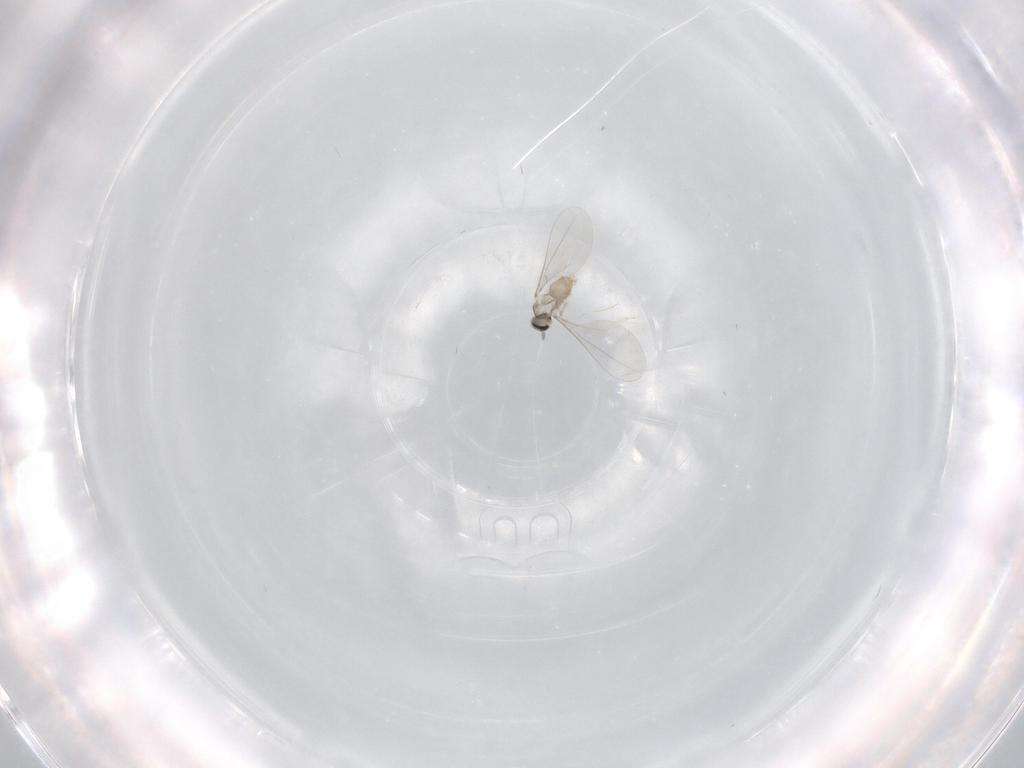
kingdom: Animalia
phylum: Arthropoda
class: Insecta
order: Diptera
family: Cecidomyiidae
